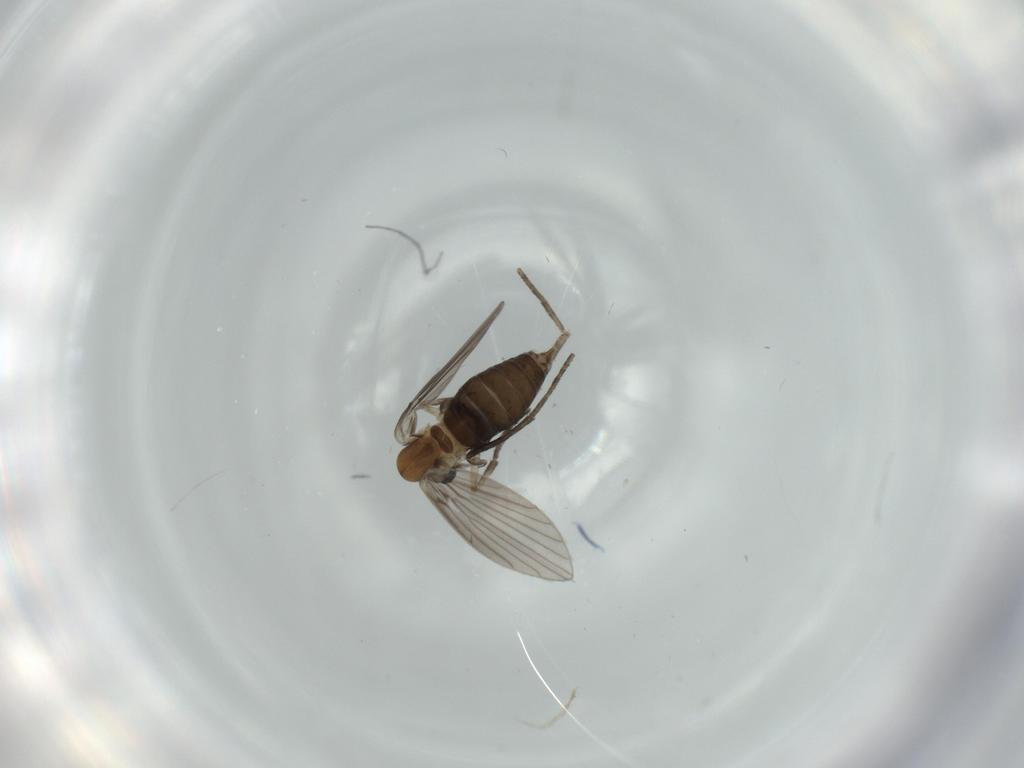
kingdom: Animalia
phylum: Arthropoda
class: Insecta
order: Diptera
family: Psychodidae
